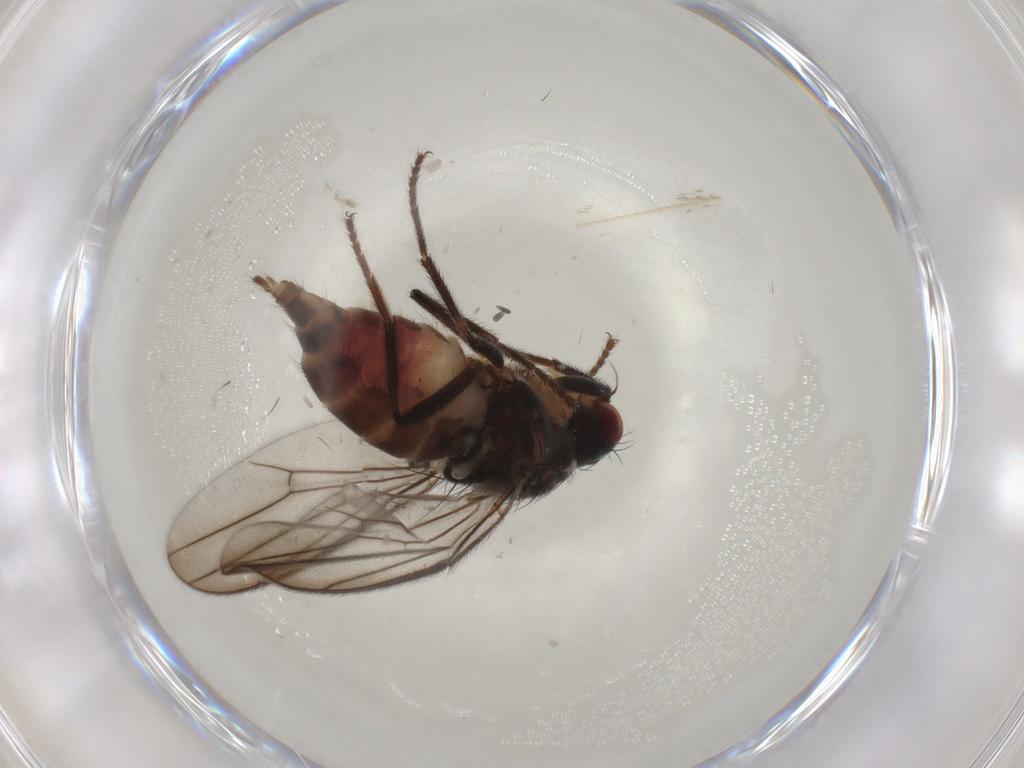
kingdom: Animalia
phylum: Arthropoda
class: Insecta
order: Diptera
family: Chloropidae
